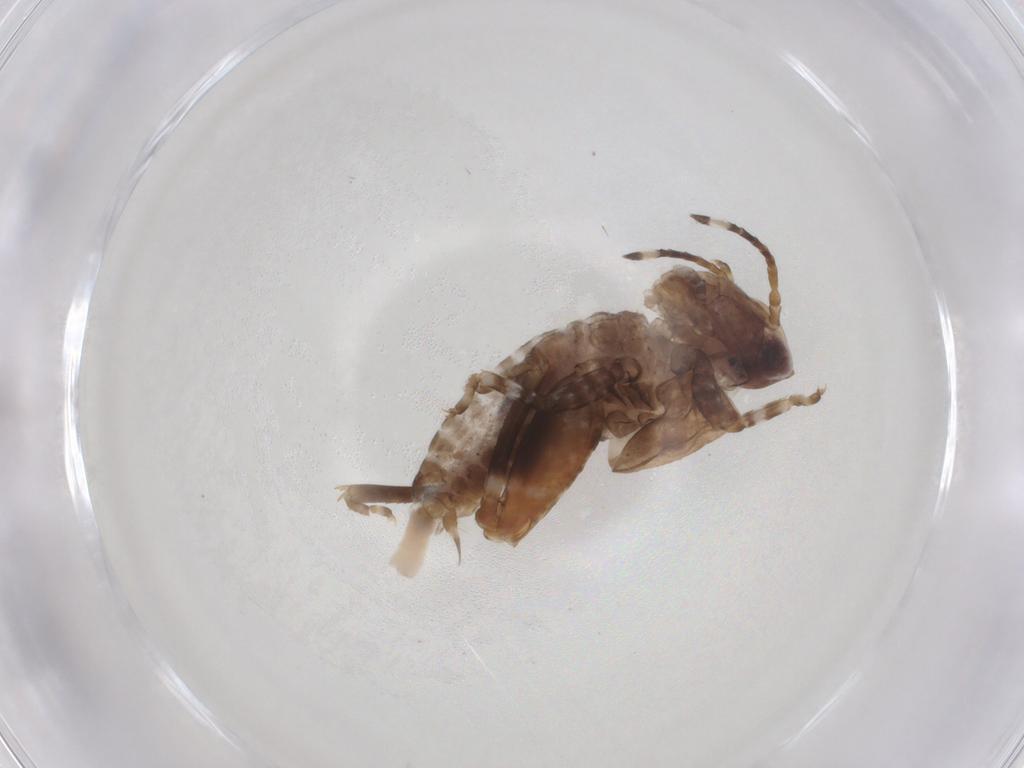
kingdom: Animalia
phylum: Arthropoda
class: Insecta
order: Orthoptera
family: Tetrigidae
